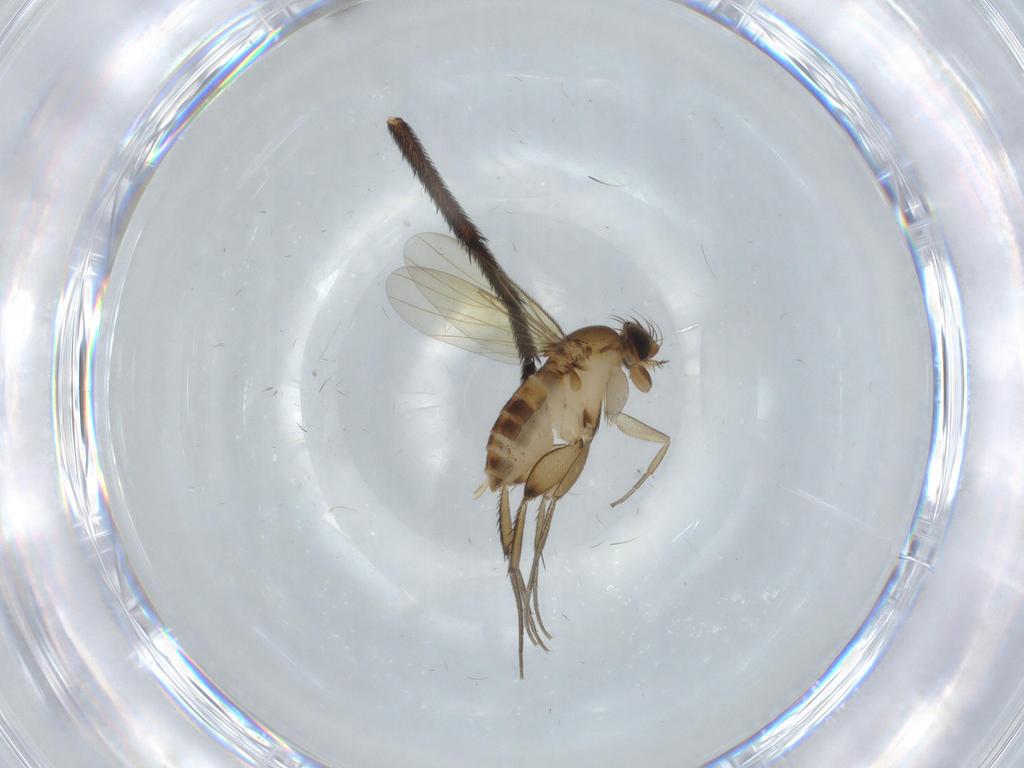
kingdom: Animalia
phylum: Arthropoda
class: Insecta
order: Diptera
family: Phoridae
